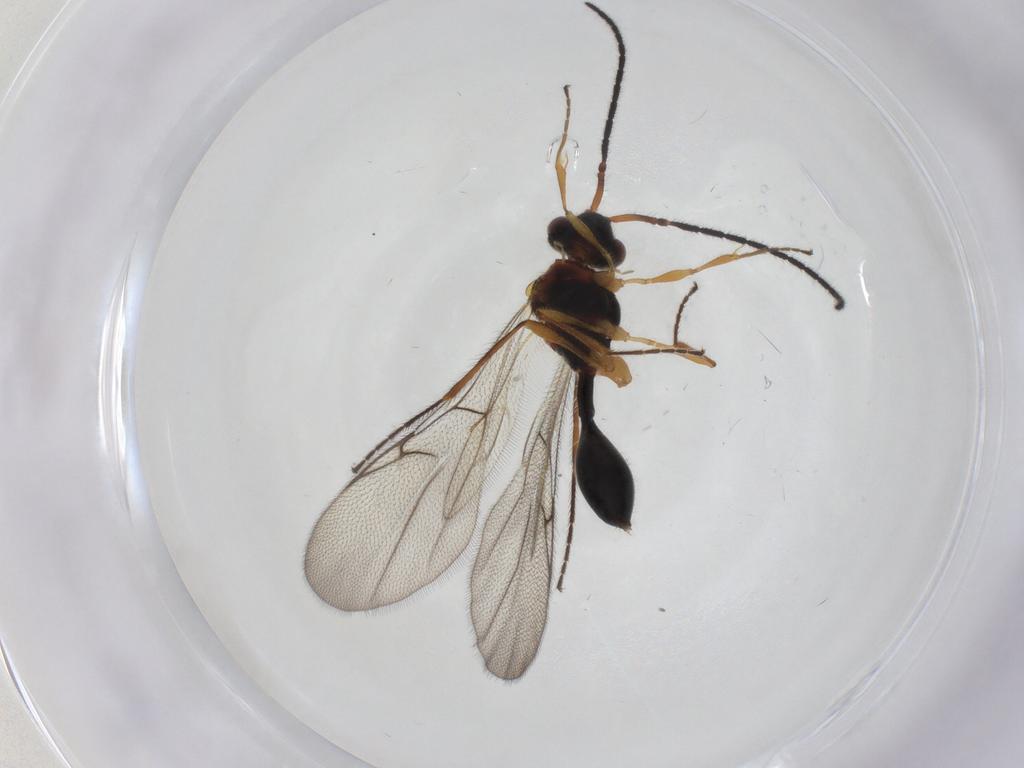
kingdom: Animalia
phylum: Arthropoda
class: Insecta
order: Hymenoptera
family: Diapriidae
